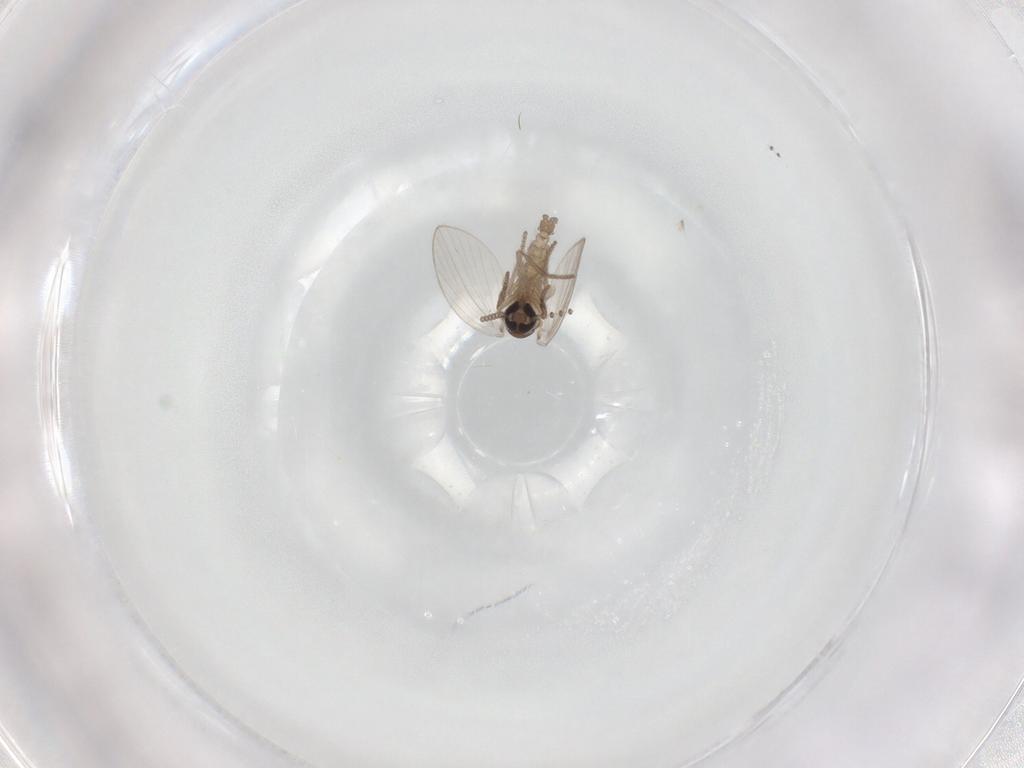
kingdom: Animalia
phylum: Arthropoda
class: Insecta
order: Diptera
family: Psychodidae
